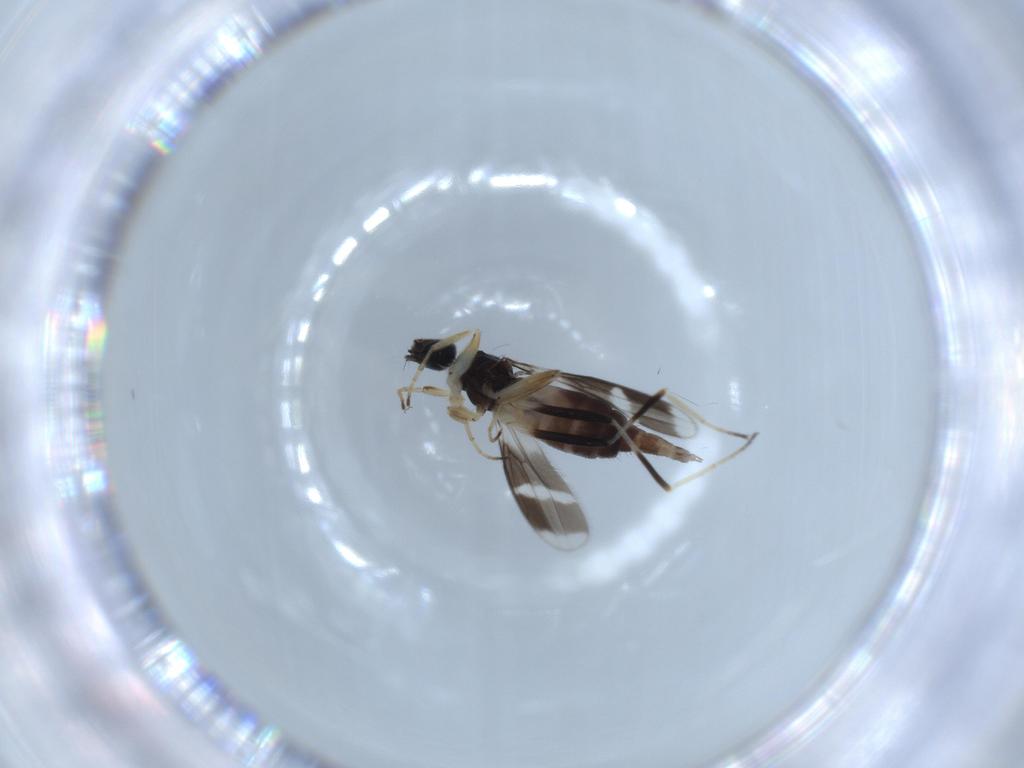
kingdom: Animalia
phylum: Arthropoda
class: Insecta
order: Diptera
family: Hybotidae
